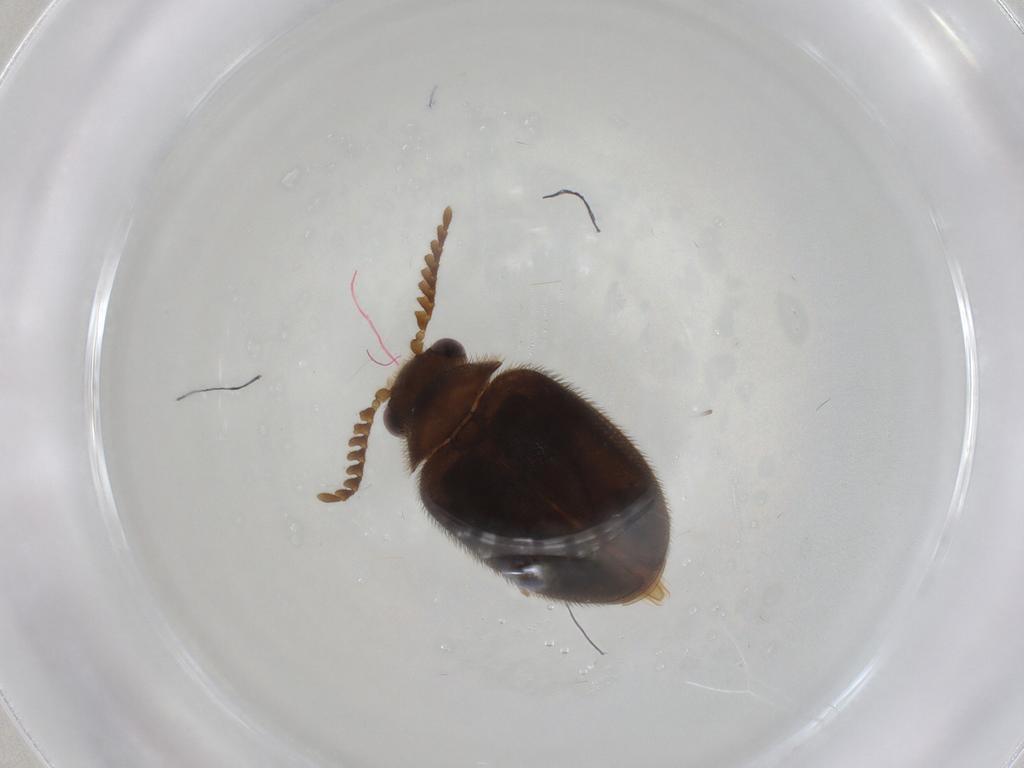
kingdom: Animalia
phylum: Arthropoda
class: Insecta
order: Coleoptera
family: Scirtidae
